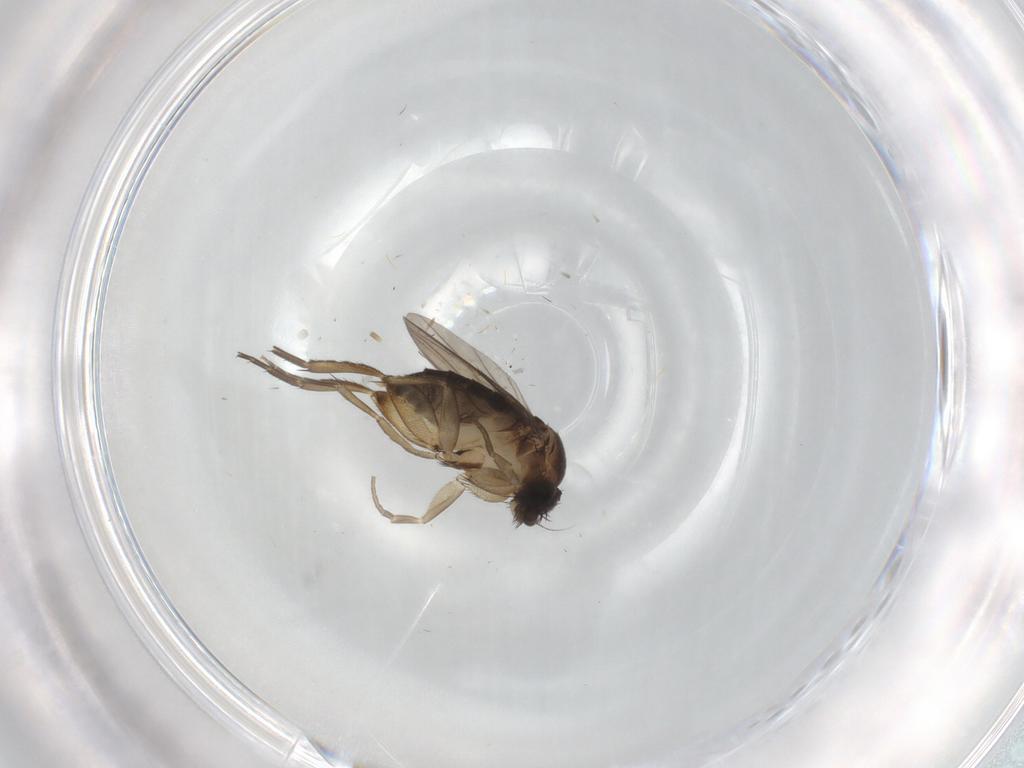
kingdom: Animalia
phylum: Arthropoda
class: Insecta
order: Diptera
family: Phoridae
